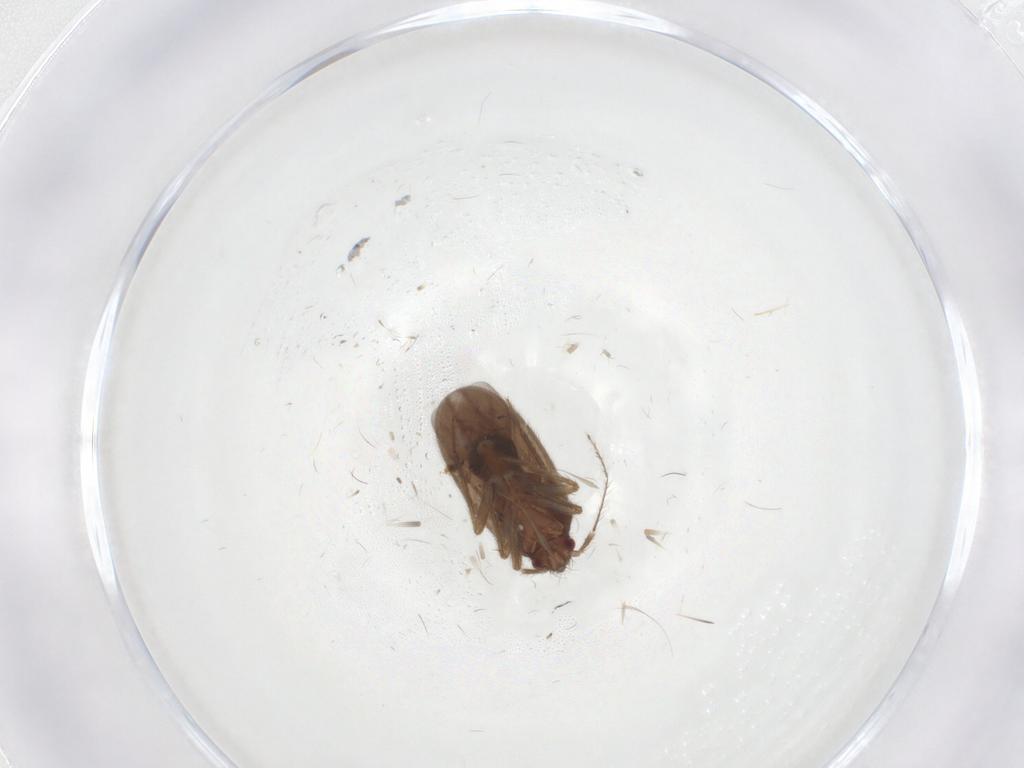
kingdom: Animalia
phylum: Arthropoda
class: Insecta
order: Hemiptera
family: Ceratocombidae
